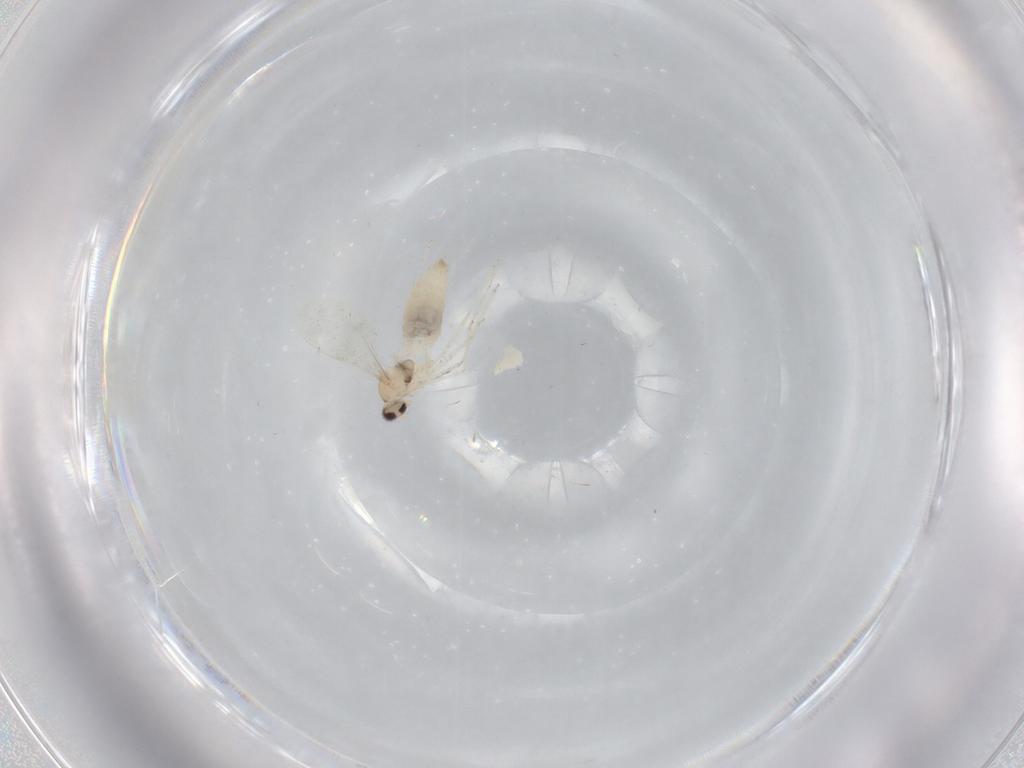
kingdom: Animalia
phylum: Arthropoda
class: Insecta
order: Diptera
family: Cecidomyiidae
